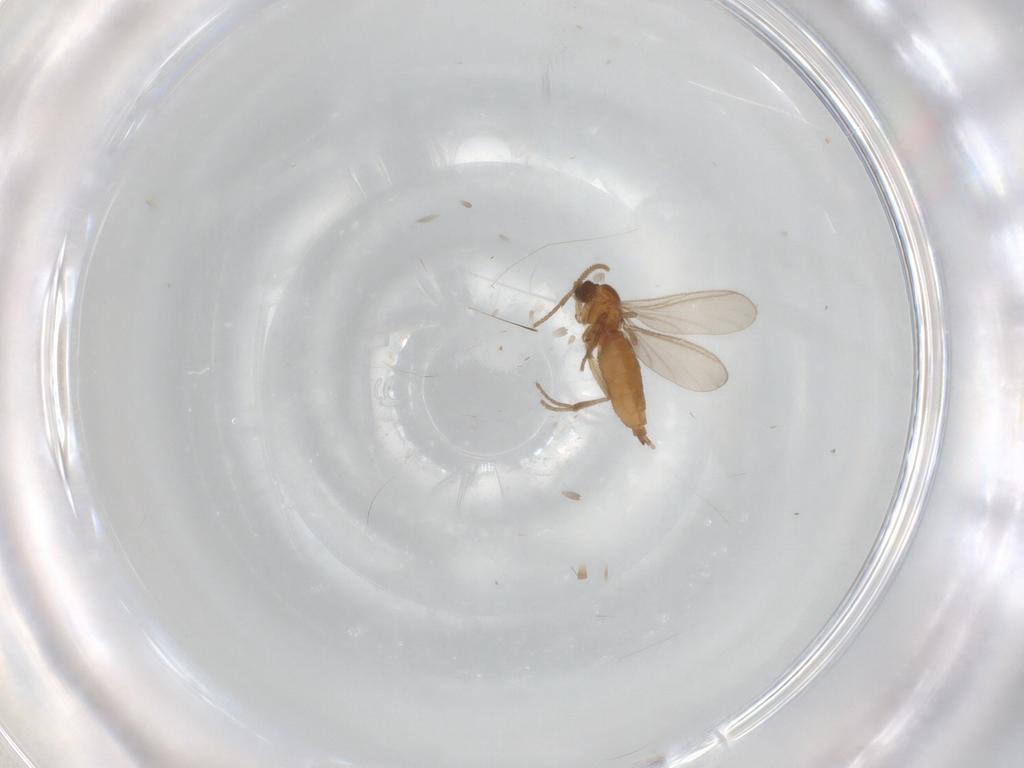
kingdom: Animalia
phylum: Arthropoda
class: Insecta
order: Diptera
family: Sciaridae
